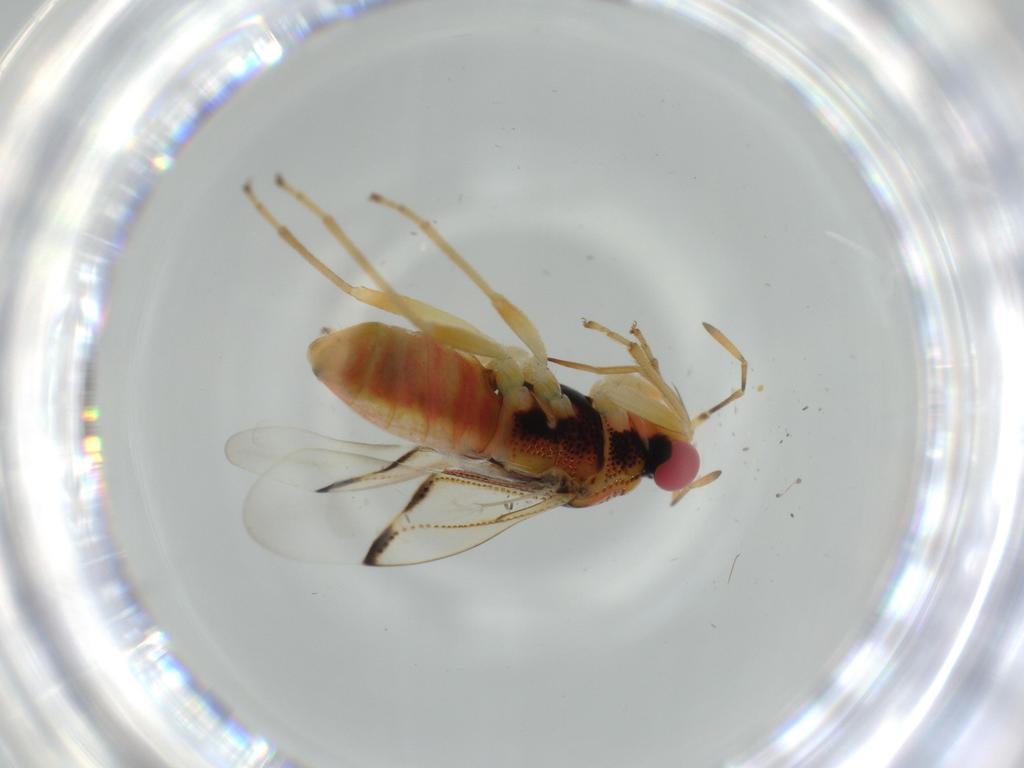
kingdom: Animalia
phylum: Arthropoda
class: Insecta
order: Hemiptera
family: Geocoridae
